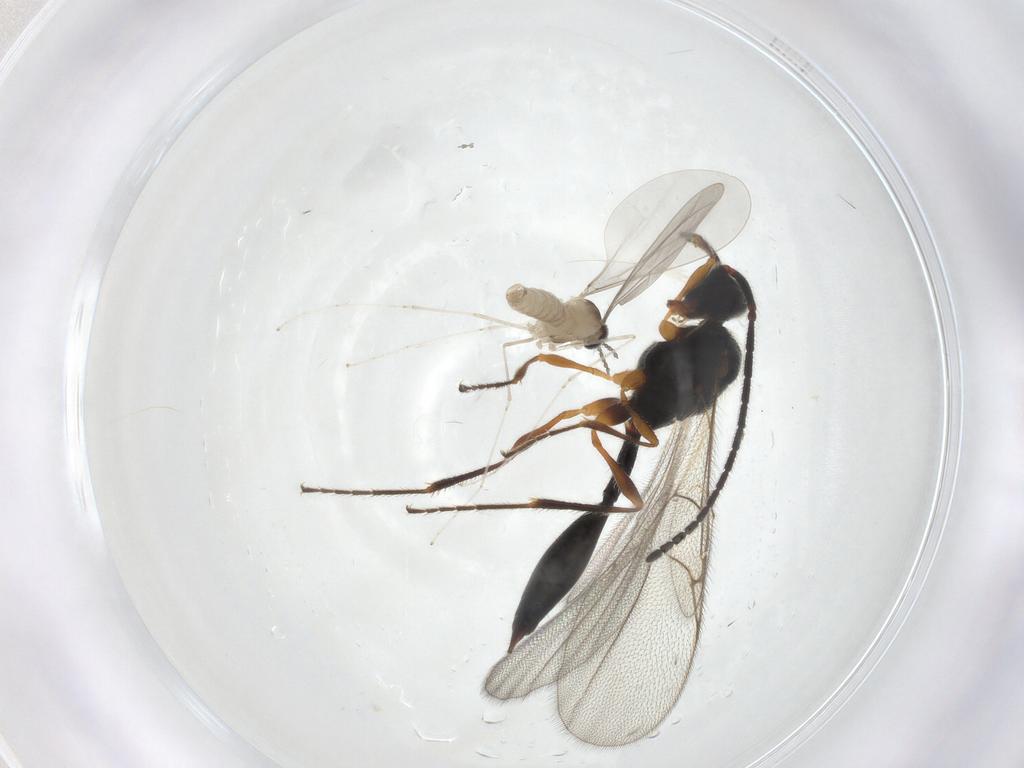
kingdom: Animalia
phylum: Arthropoda
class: Insecta
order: Diptera
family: Cecidomyiidae
